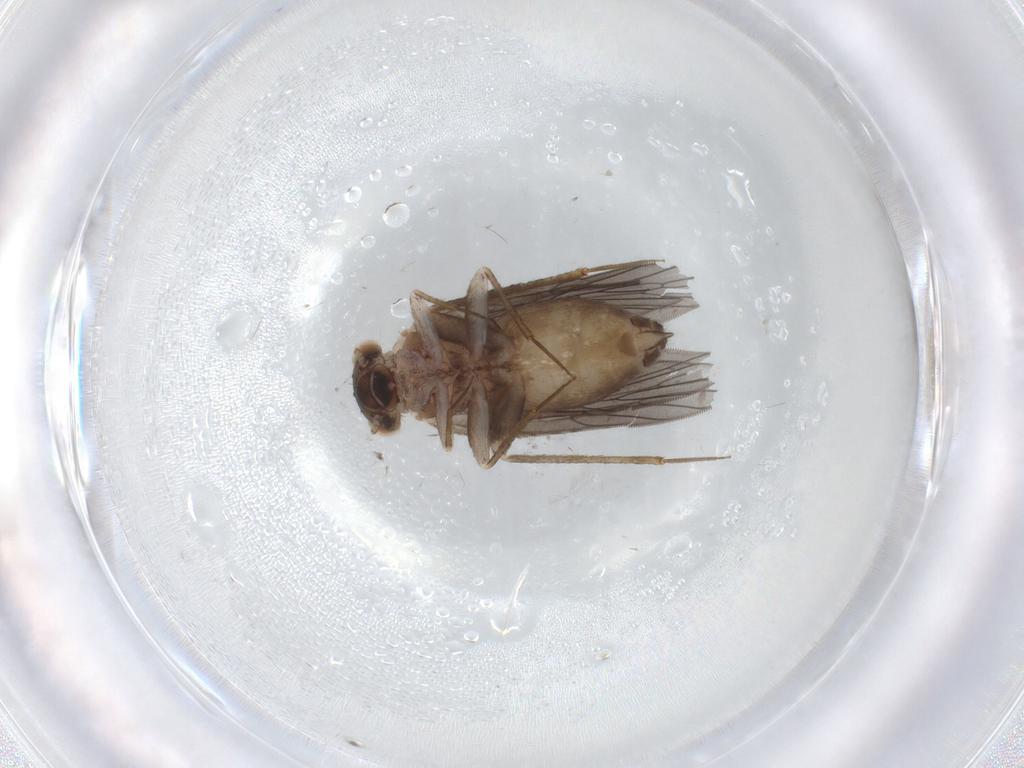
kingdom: Animalia
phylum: Arthropoda
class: Insecta
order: Psocodea
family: Lepidopsocidae
